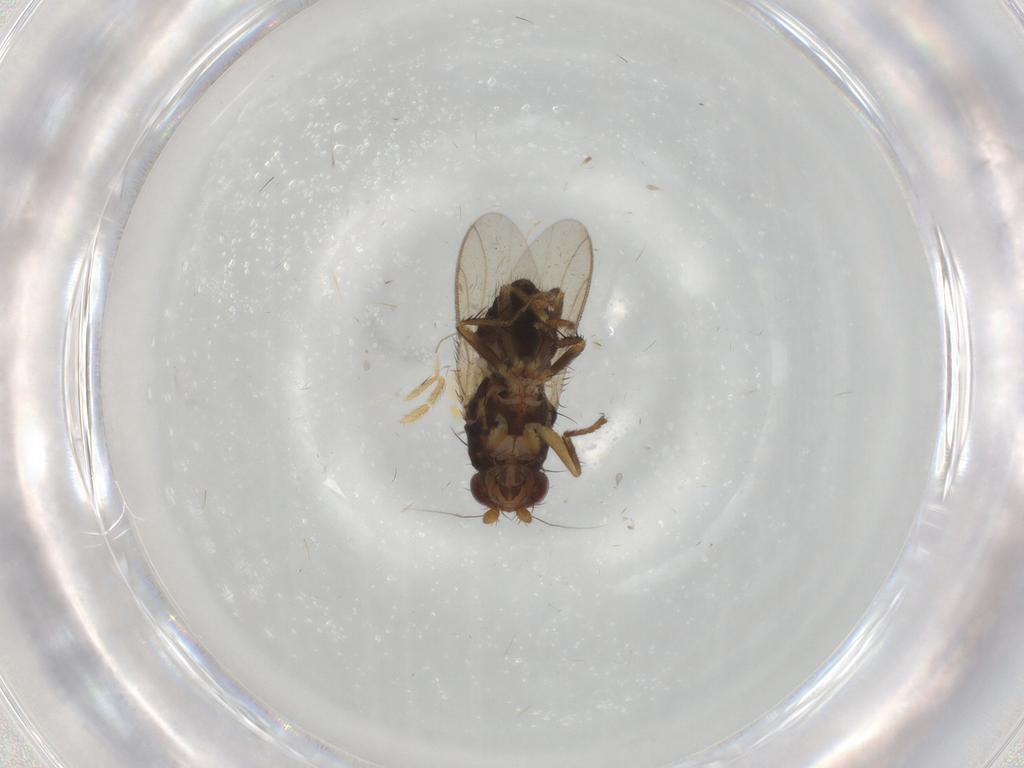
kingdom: Animalia
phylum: Arthropoda
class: Insecta
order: Diptera
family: Sphaeroceridae
